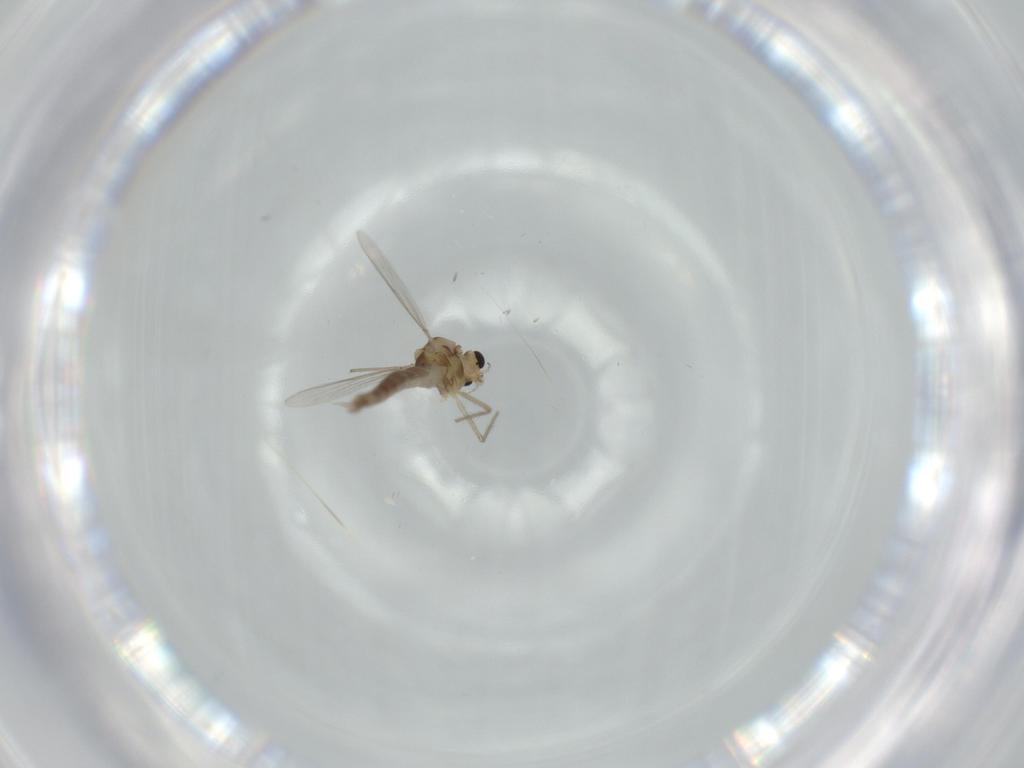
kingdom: Animalia
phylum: Arthropoda
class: Insecta
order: Diptera
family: Chironomidae
